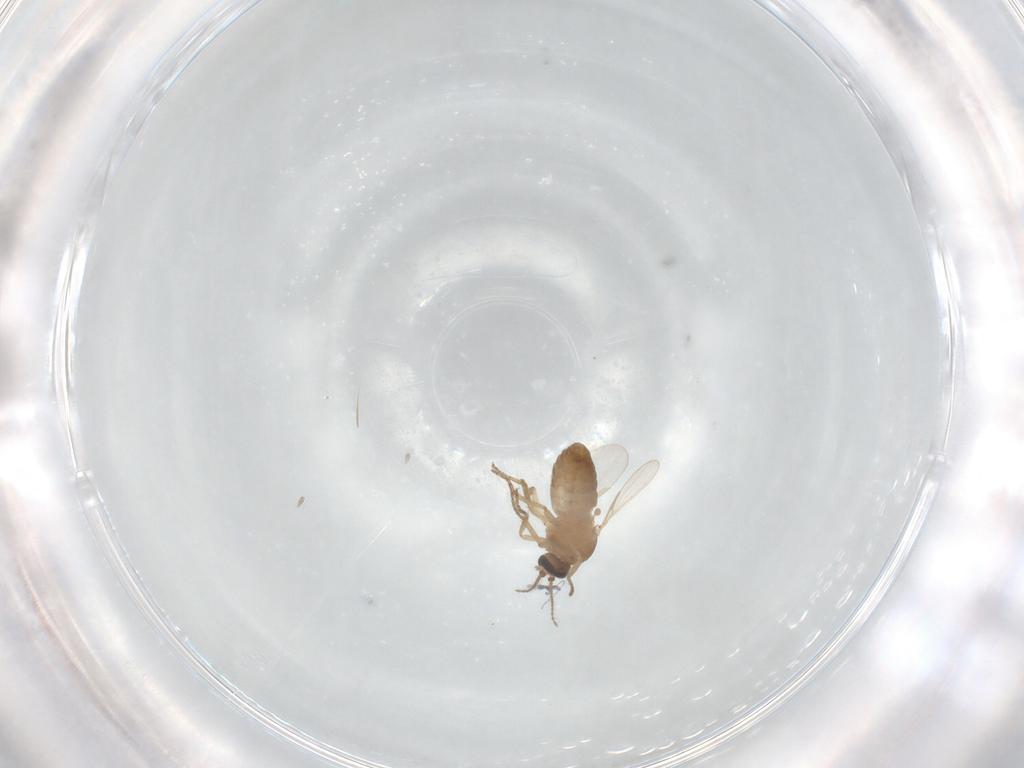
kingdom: Animalia
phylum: Arthropoda
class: Insecta
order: Diptera
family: Ceratopogonidae
